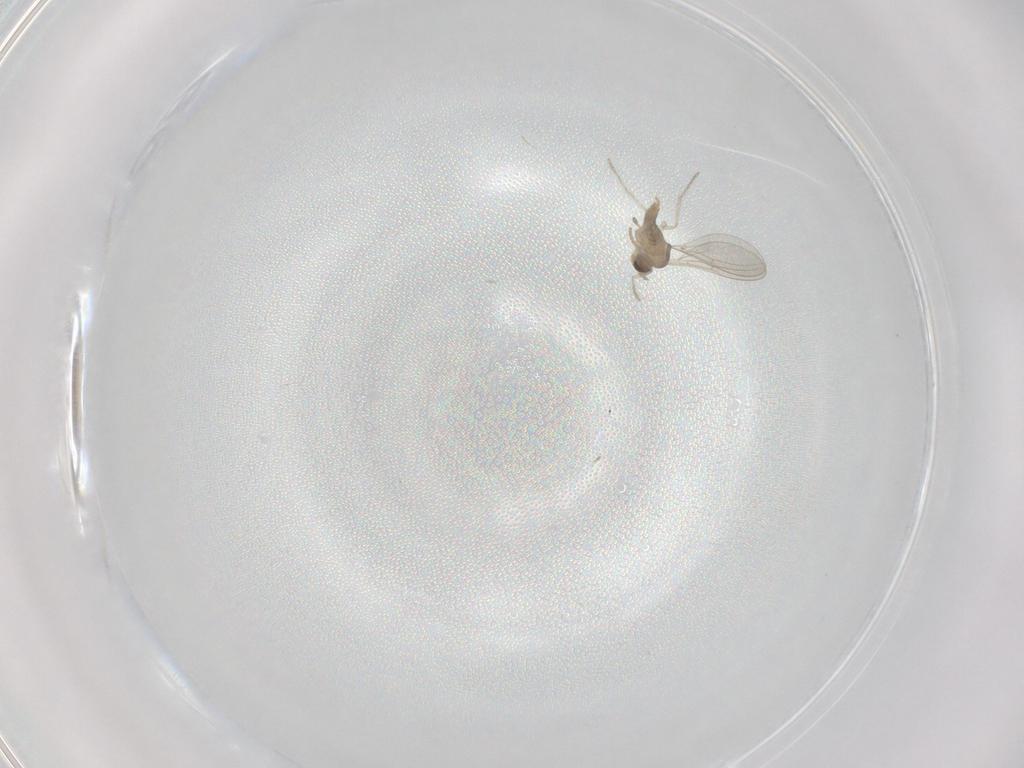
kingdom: Animalia
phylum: Arthropoda
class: Insecta
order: Diptera
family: Cecidomyiidae
